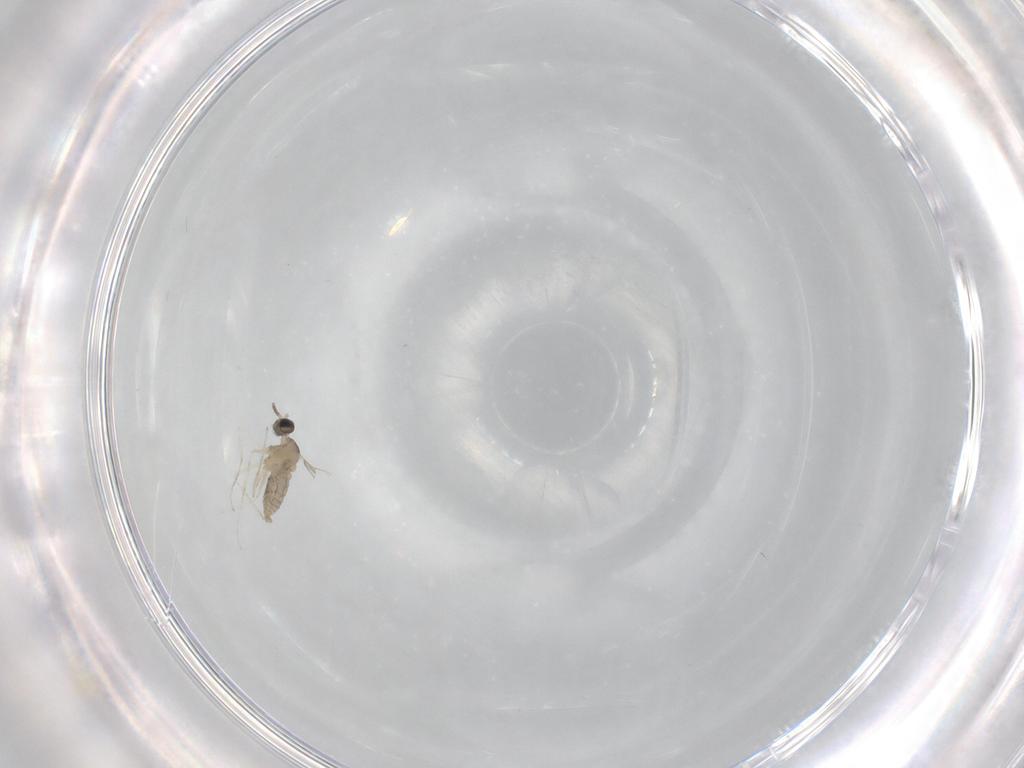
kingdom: Animalia
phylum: Arthropoda
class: Insecta
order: Diptera
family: Cecidomyiidae
